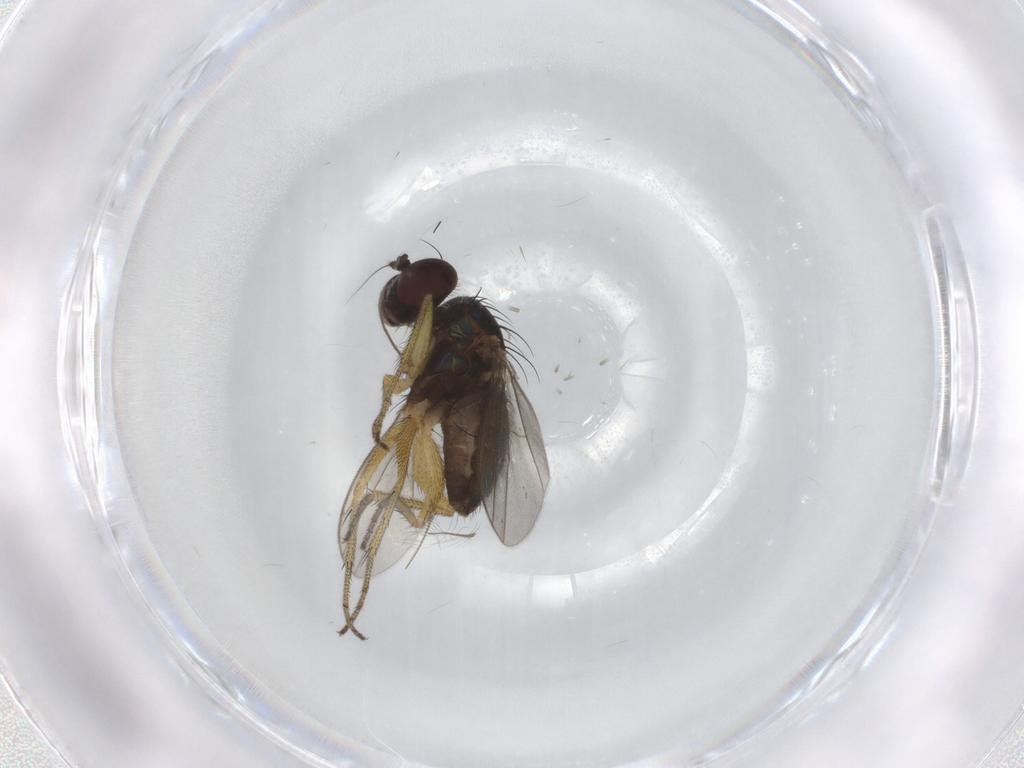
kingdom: Animalia
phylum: Arthropoda
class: Insecta
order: Diptera
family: Dolichopodidae
